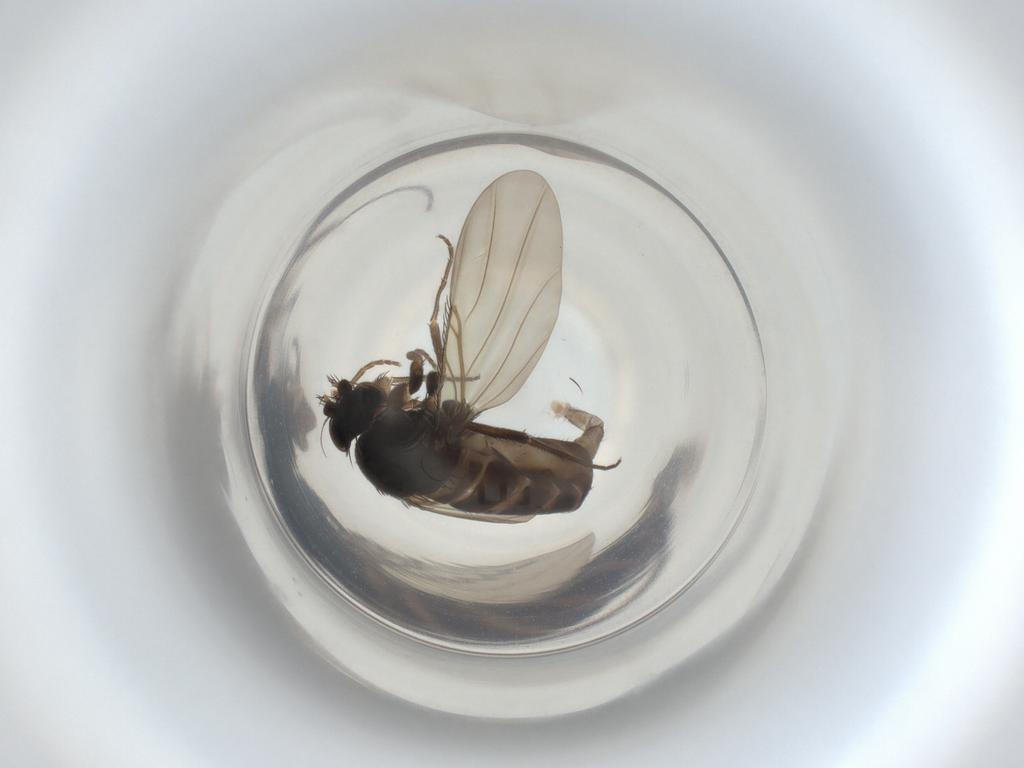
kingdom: Animalia
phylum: Arthropoda
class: Insecta
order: Diptera
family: Phoridae
